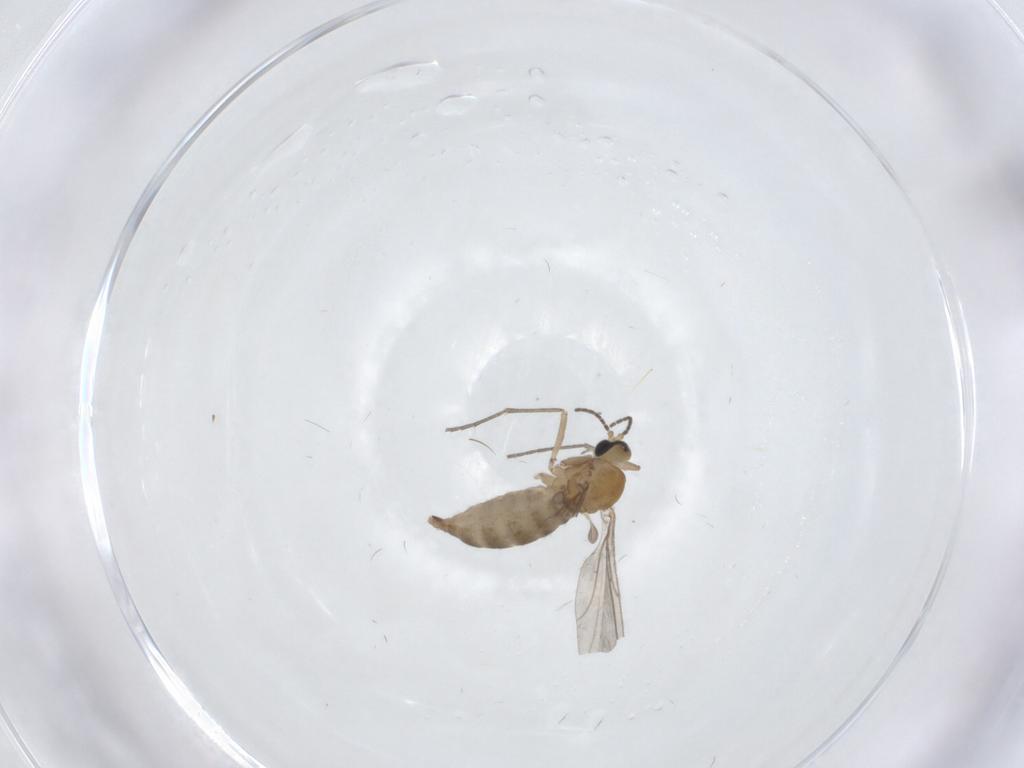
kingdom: Animalia
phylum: Arthropoda
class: Insecta
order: Diptera
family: Sciaridae
